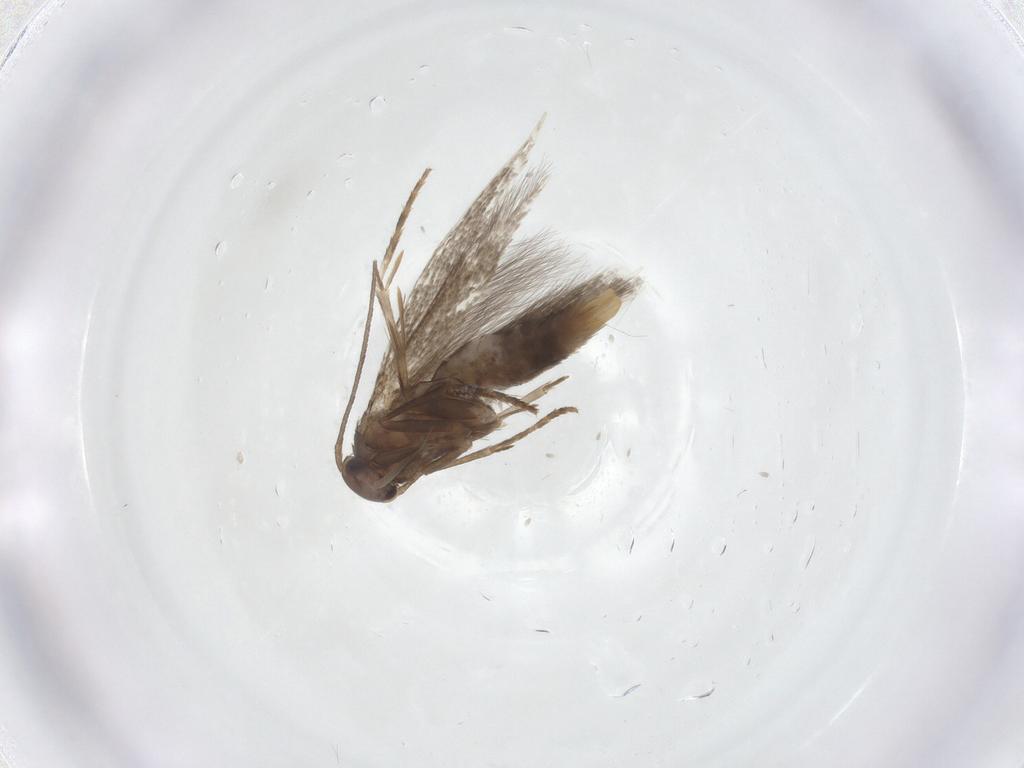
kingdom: Animalia
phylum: Arthropoda
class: Insecta
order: Lepidoptera
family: Elachistidae
